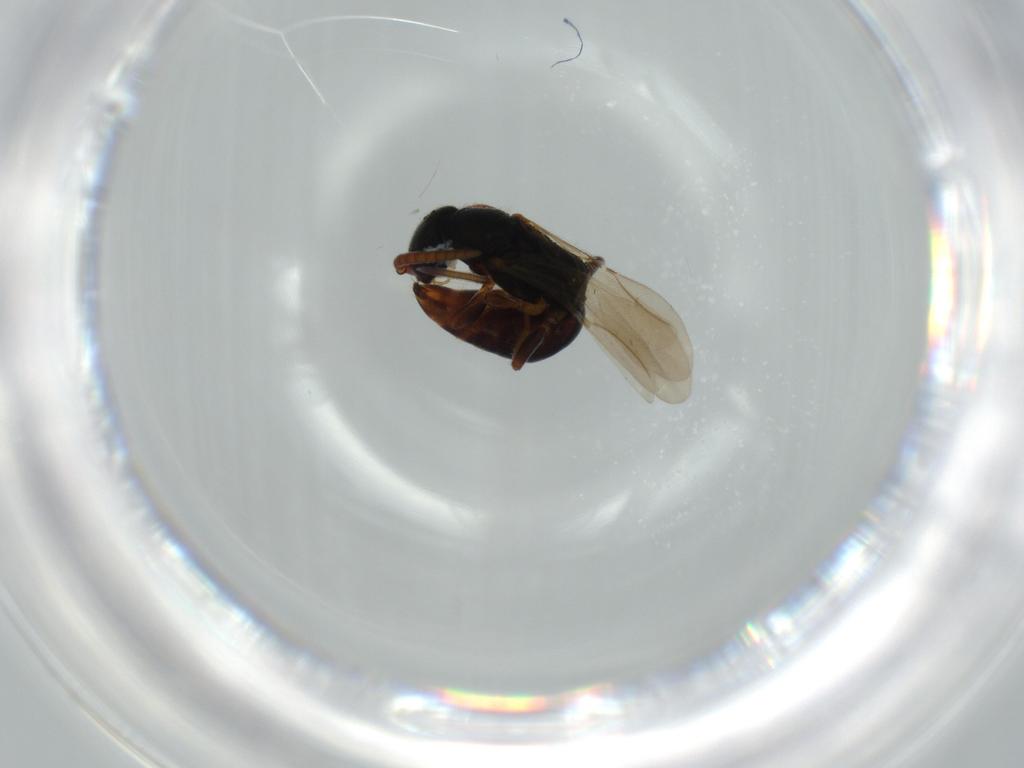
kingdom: Animalia
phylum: Arthropoda
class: Insecta
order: Hymenoptera
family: Bethylidae
